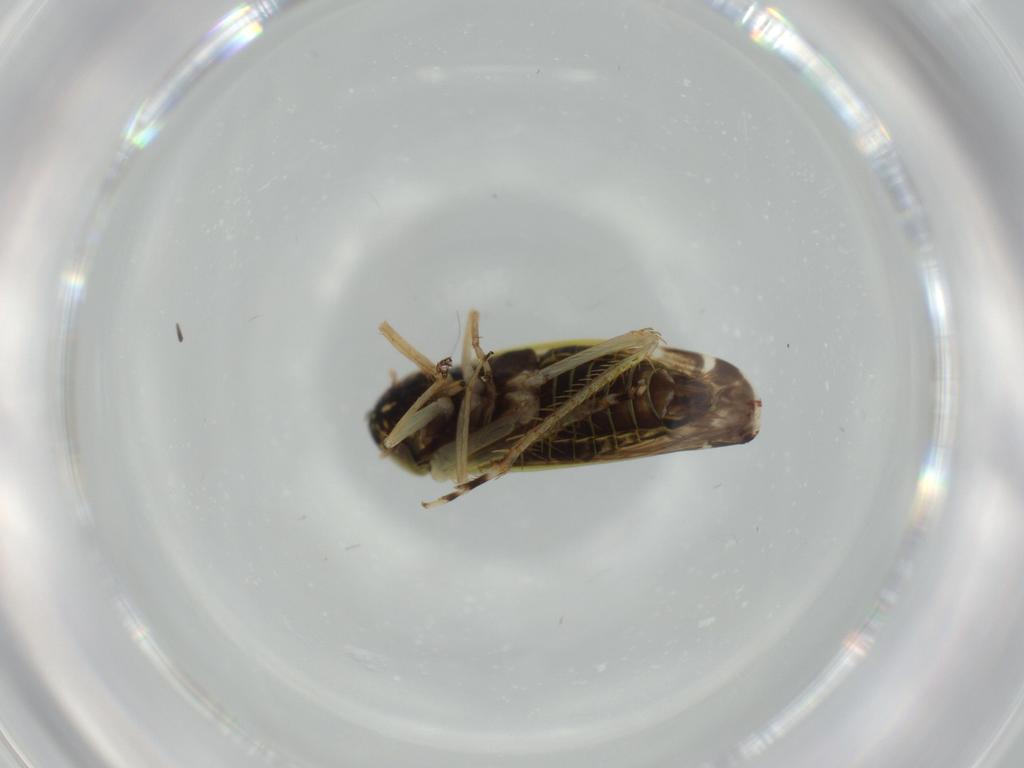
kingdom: Animalia
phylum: Arthropoda
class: Insecta
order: Hemiptera
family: Cicadellidae
